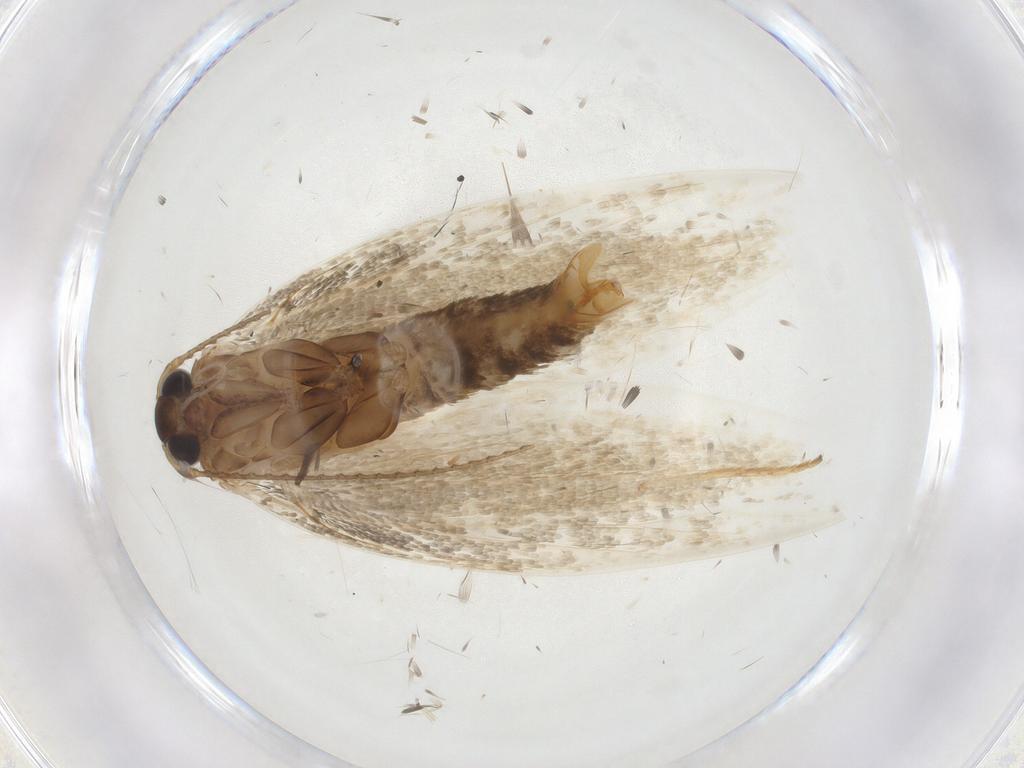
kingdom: Animalia
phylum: Arthropoda
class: Insecta
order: Lepidoptera
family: Erebidae
